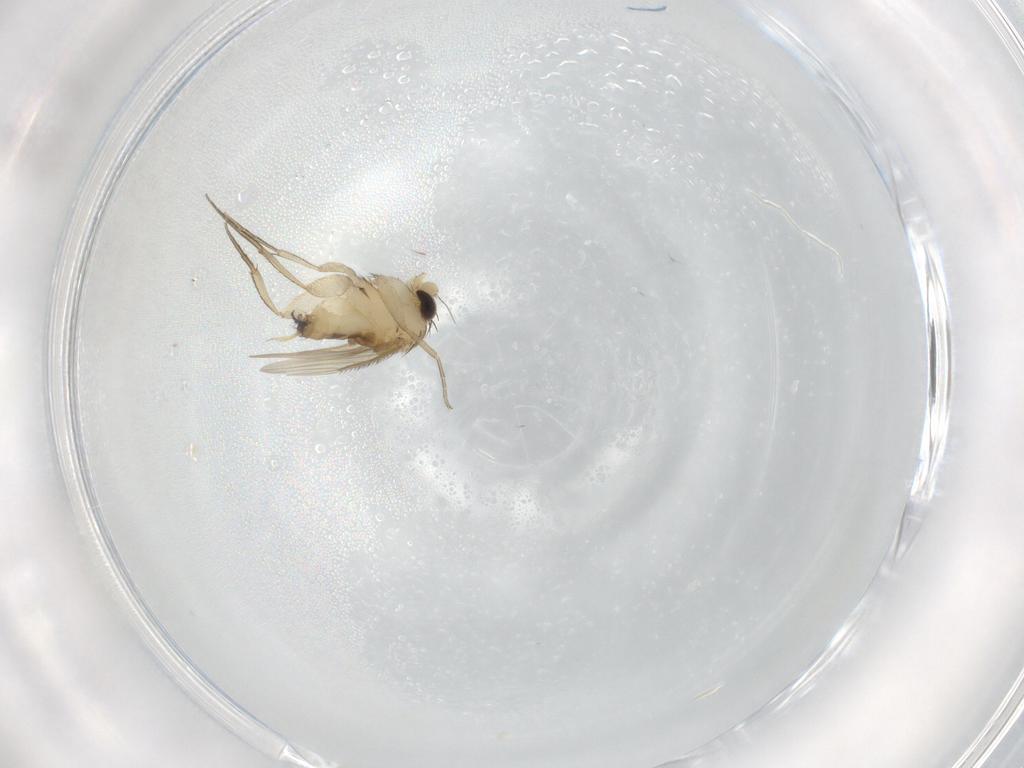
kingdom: Animalia
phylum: Arthropoda
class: Insecta
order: Diptera
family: Phoridae
